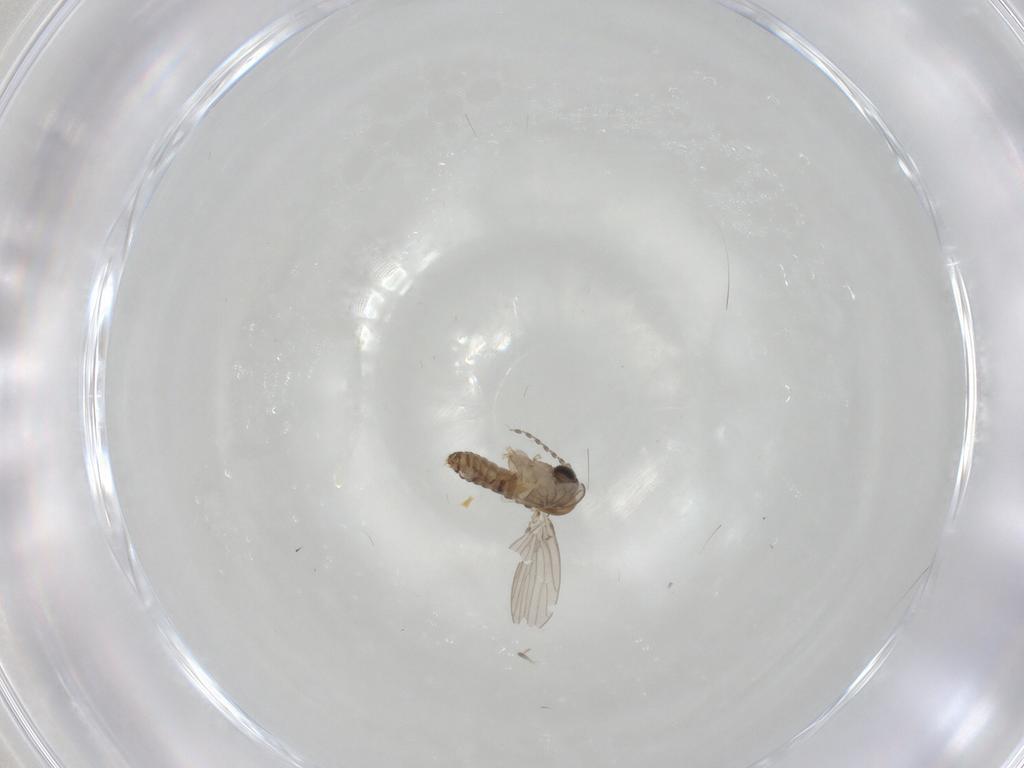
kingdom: Animalia
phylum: Arthropoda
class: Insecta
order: Diptera
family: Psychodidae
